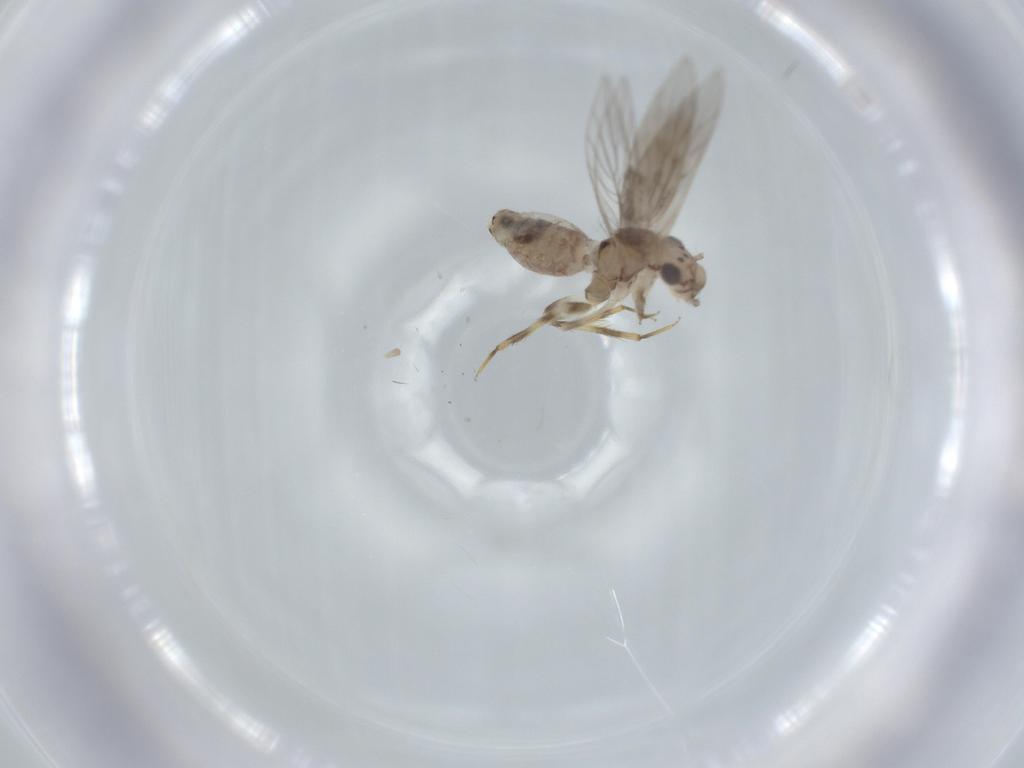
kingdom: Animalia
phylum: Arthropoda
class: Insecta
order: Psocodea
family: Lepidopsocidae
